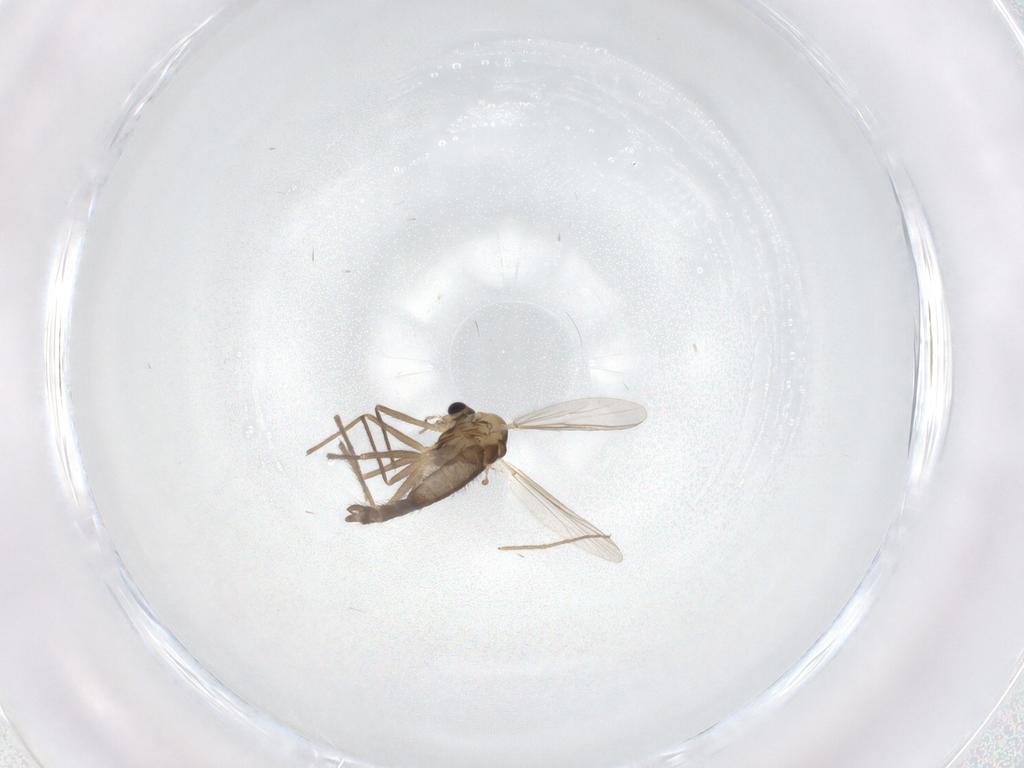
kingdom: Animalia
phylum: Arthropoda
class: Insecta
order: Diptera
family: Chironomidae
